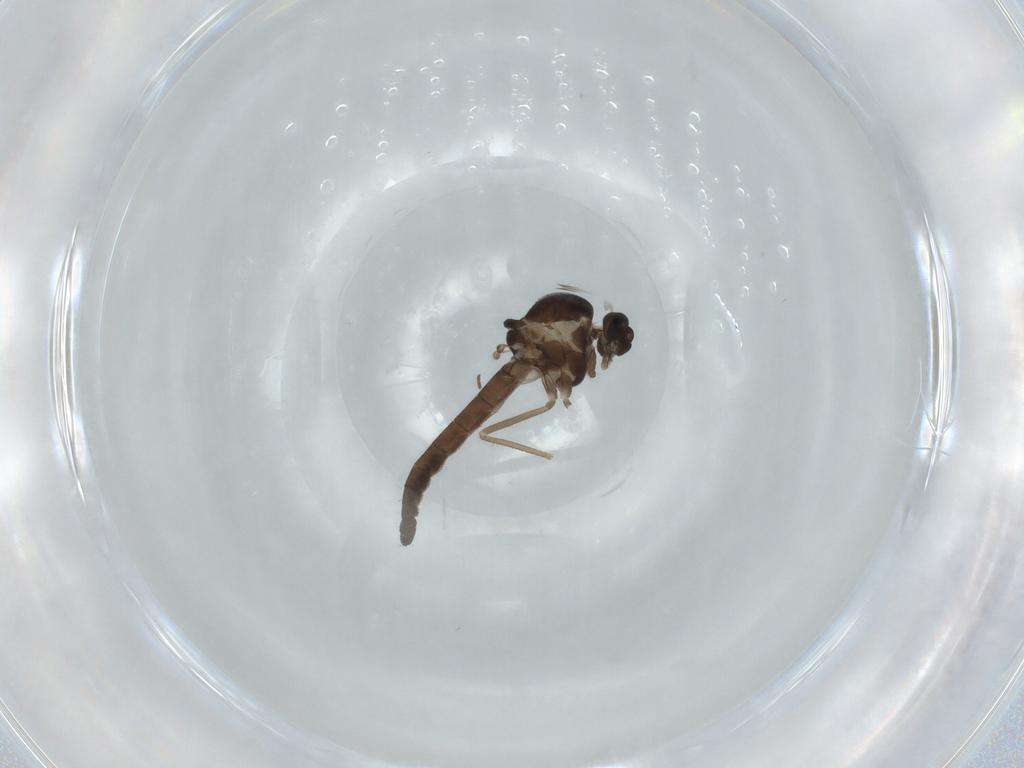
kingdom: Animalia
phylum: Arthropoda
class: Insecta
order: Diptera
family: Ceratopogonidae
